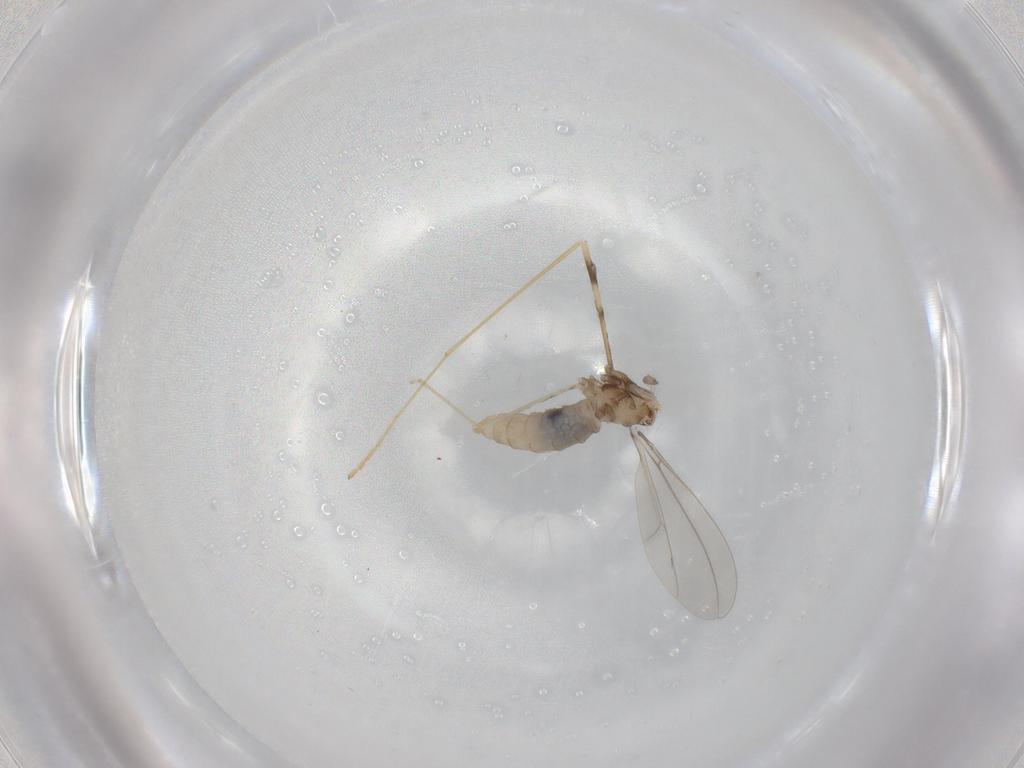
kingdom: Animalia
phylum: Arthropoda
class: Insecta
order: Diptera
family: Cecidomyiidae
